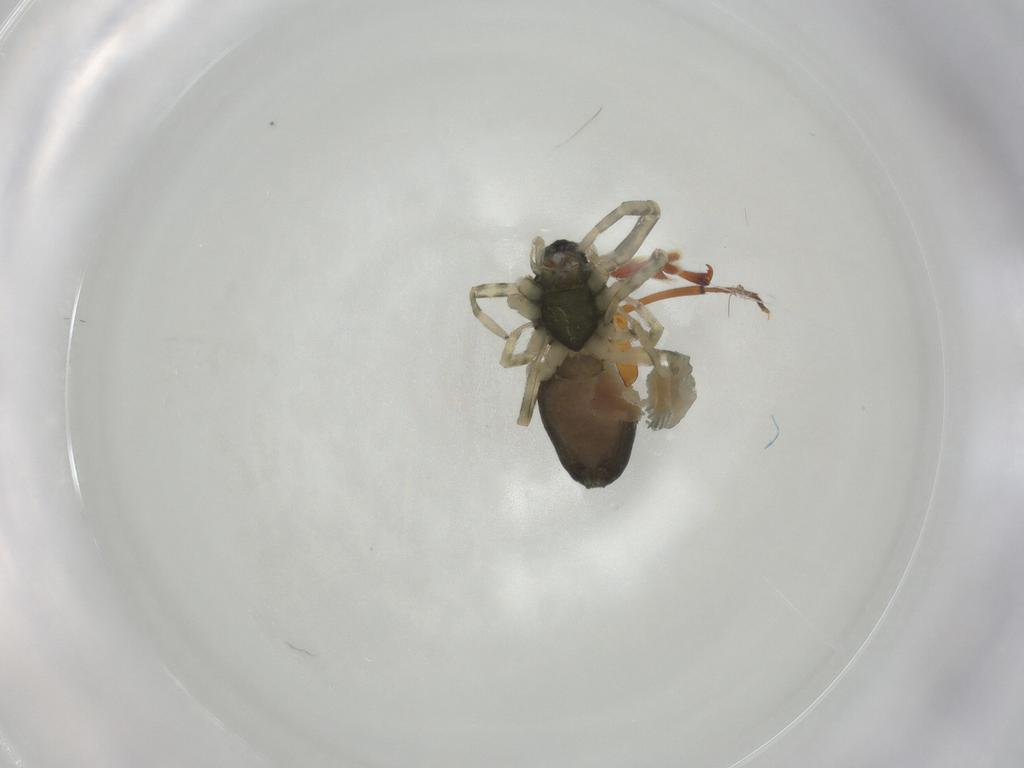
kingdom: Animalia
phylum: Arthropoda
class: Arachnida
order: Araneae
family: Trachelidae
